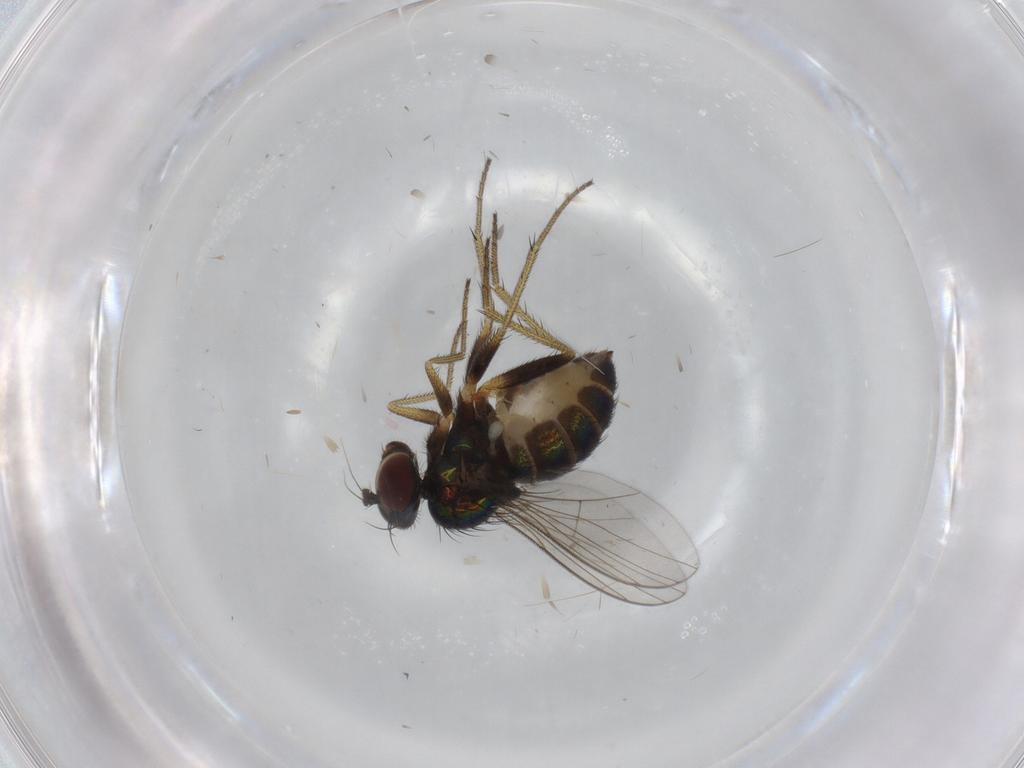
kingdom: Animalia
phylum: Arthropoda
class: Insecta
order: Diptera
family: Dolichopodidae
